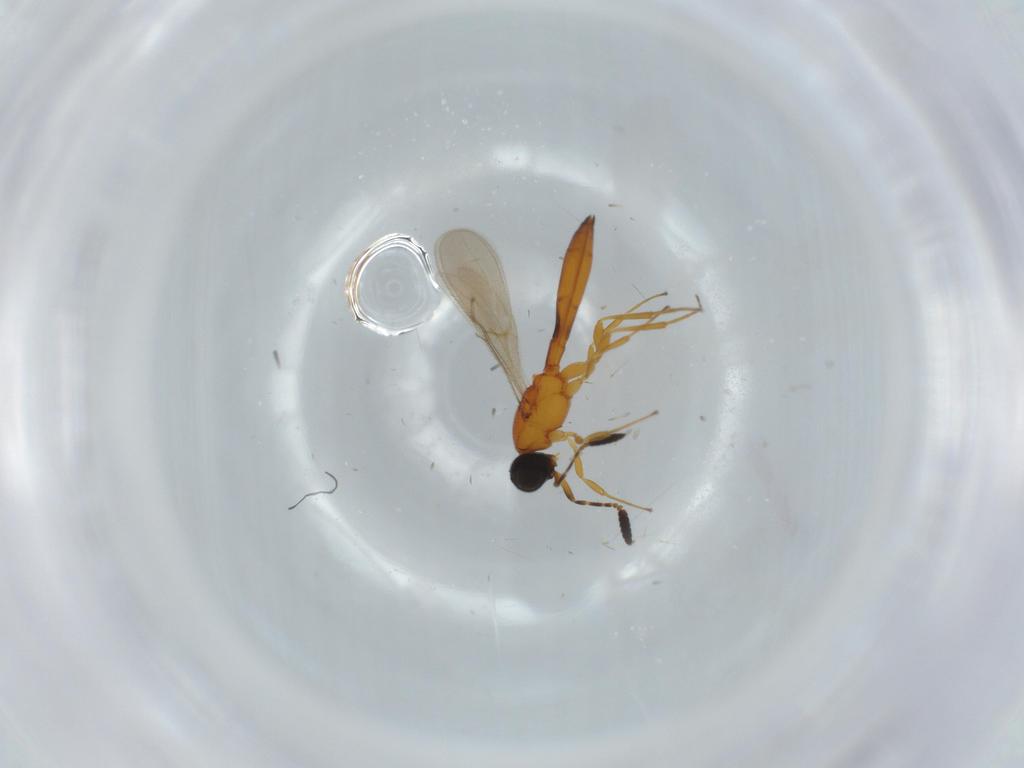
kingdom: Animalia
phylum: Arthropoda
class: Insecta
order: Hymenoptera
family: Scelionidae
